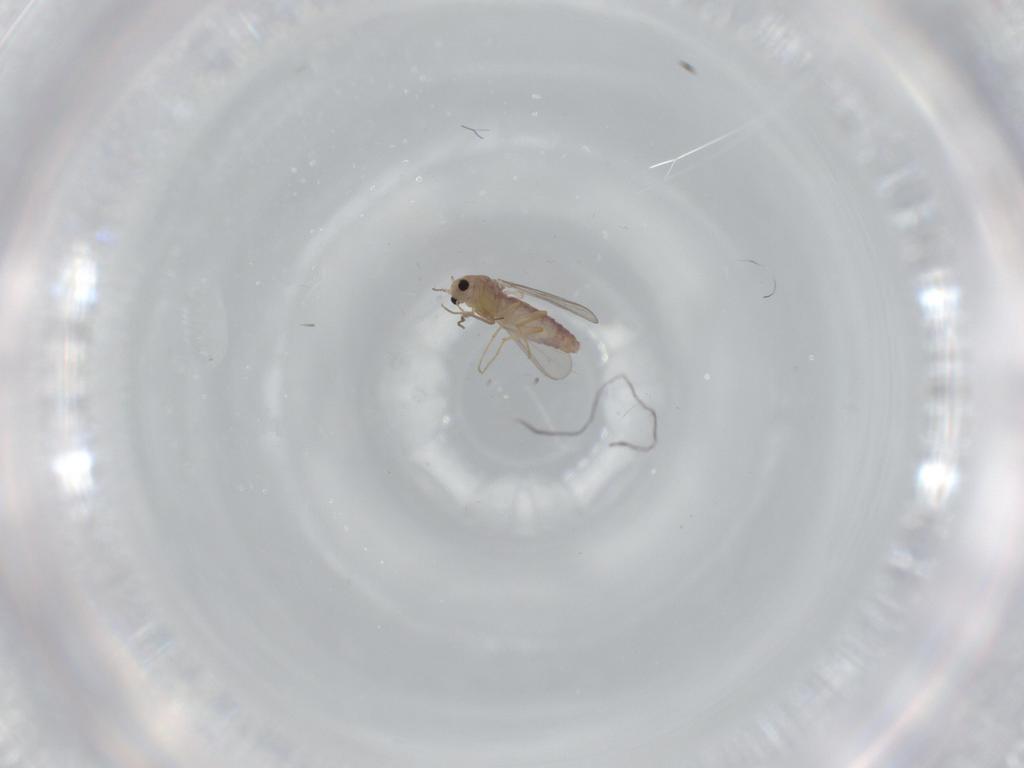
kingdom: Animalia
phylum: Arthropoda
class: Insecta
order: Diptera
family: Chironomidae
